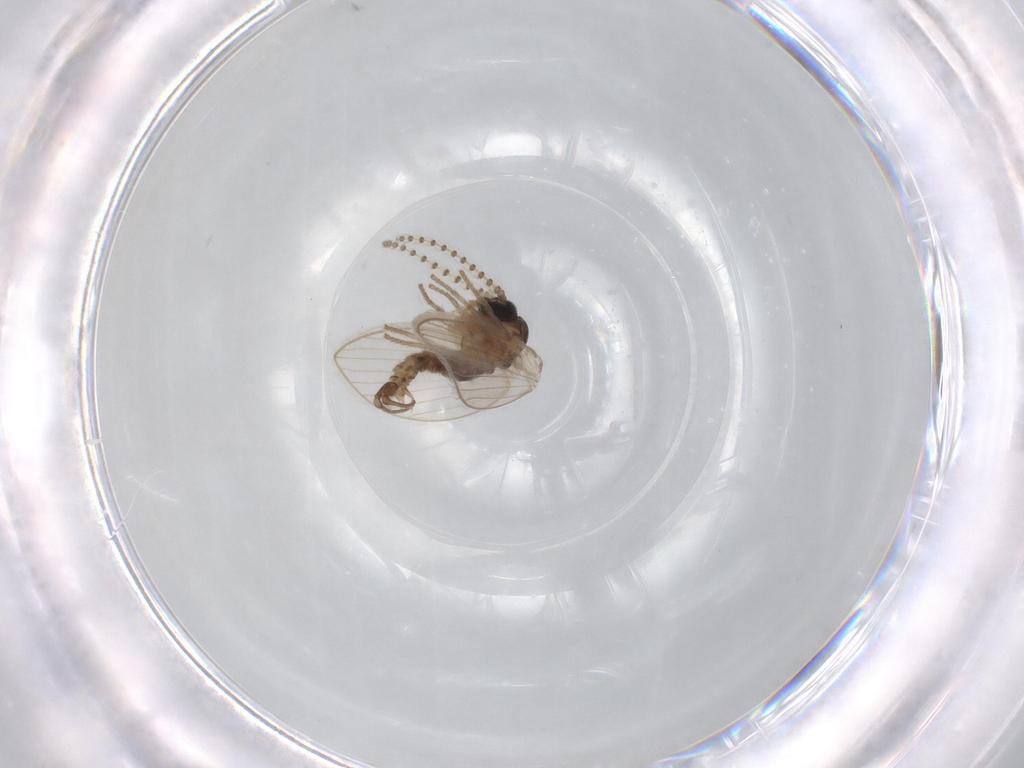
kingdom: Animalia
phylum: Arthropoda
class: Insecta
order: Diptera
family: Psychodidae
